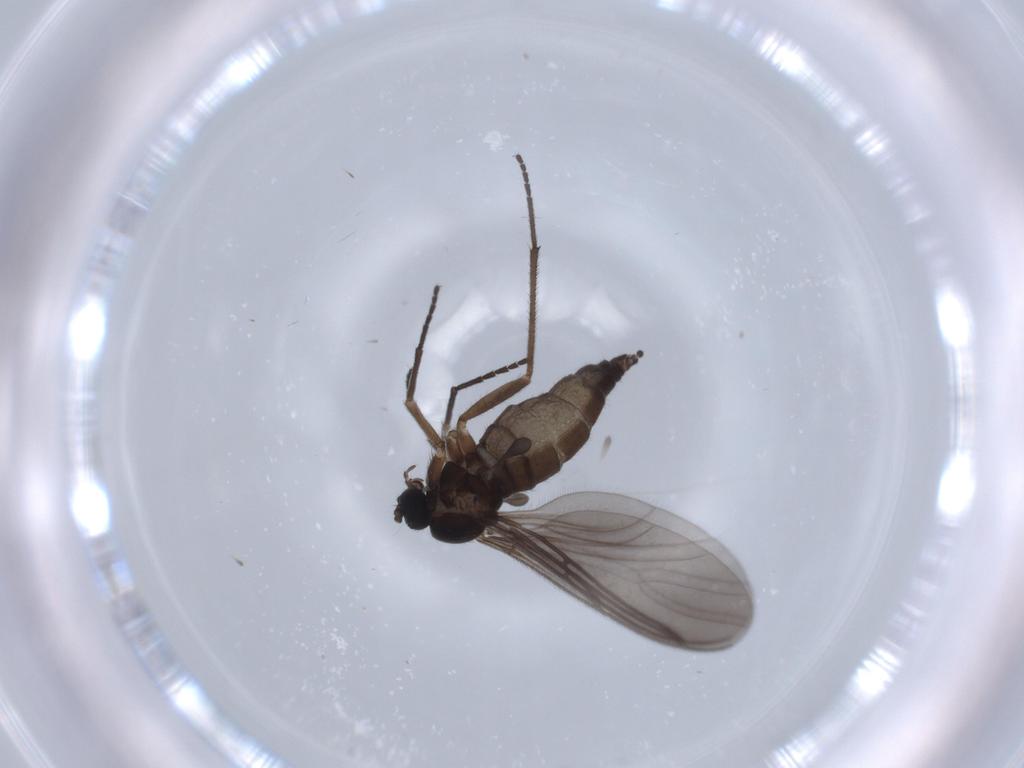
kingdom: Animalia
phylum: Arthropoda
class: Insecta
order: Diptera
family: Sciaridae
